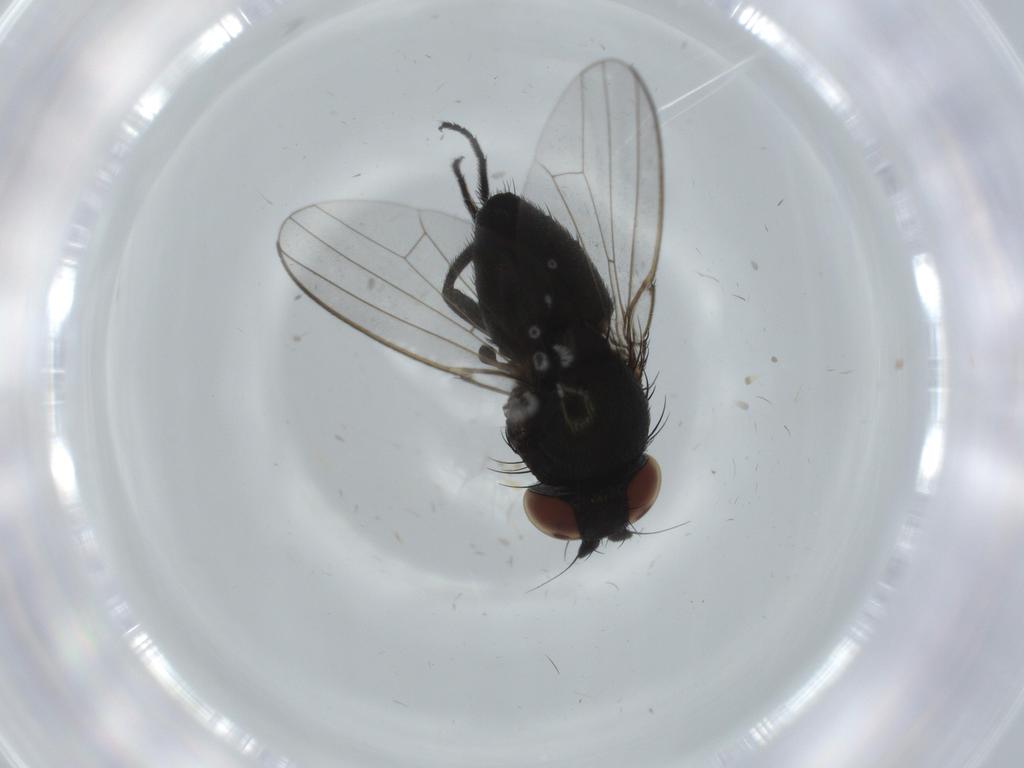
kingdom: Animalia
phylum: Arthropoda
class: Insecta
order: Diptera
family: Milichiidae
